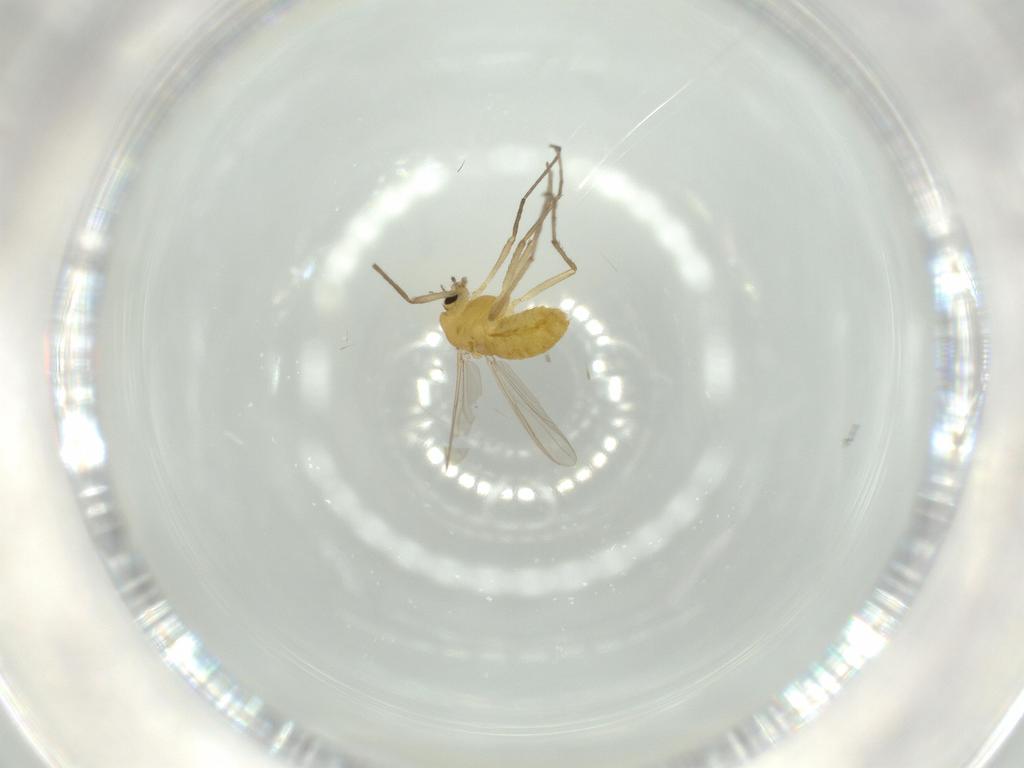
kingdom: Animalia
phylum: Arthropoda
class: Insecta
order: Diptera
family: Chironomidae
